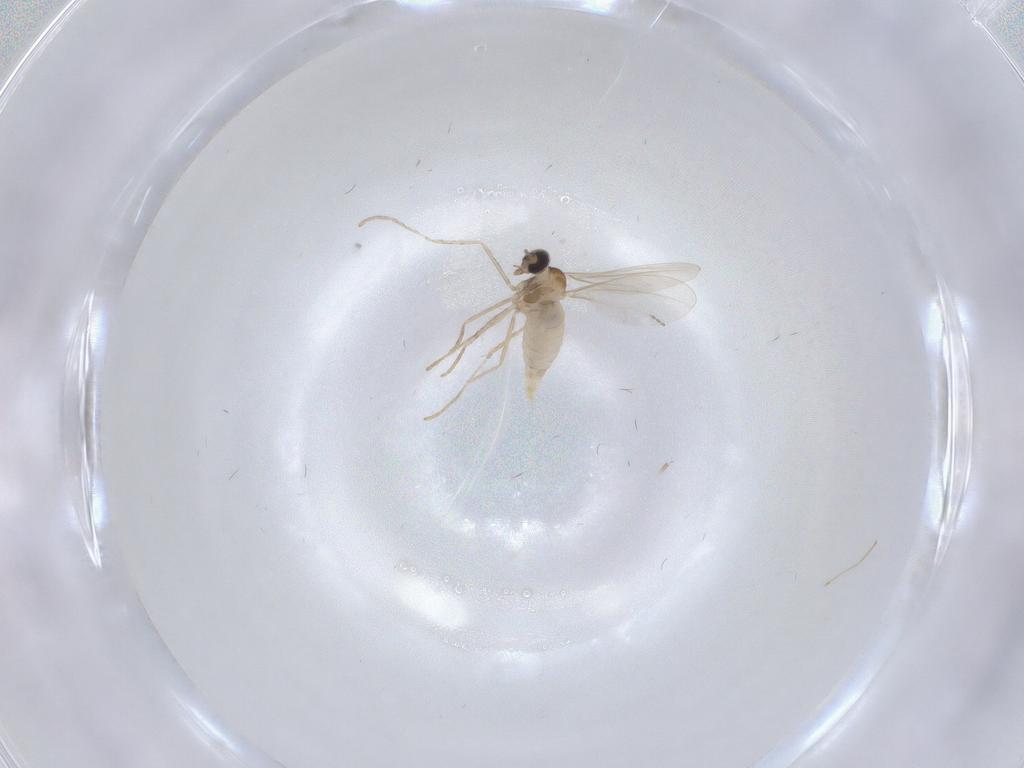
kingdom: Animalia
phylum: Arthropoda
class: Insecta
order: Diptera
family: Cecidomyiidae
